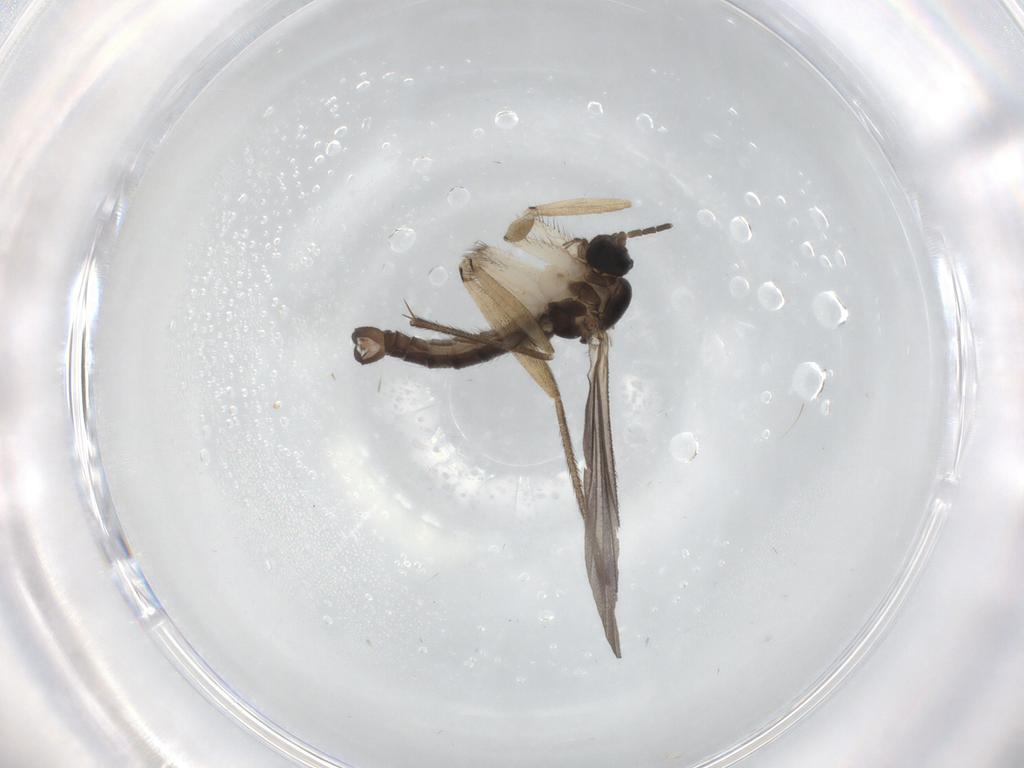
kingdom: Animalia
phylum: Arthropoda
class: Insecta
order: Diptera
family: Sciaridae
